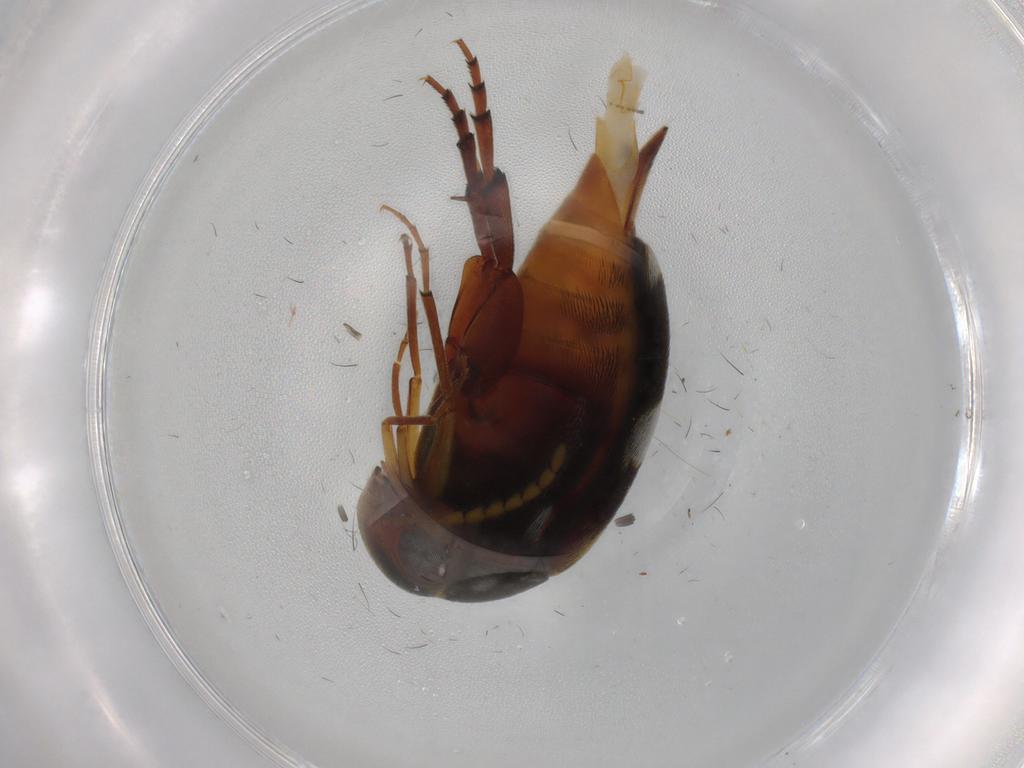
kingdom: Animalia
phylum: Arthropoda
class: Insecta
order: Coleoptera
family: Mordellidae
